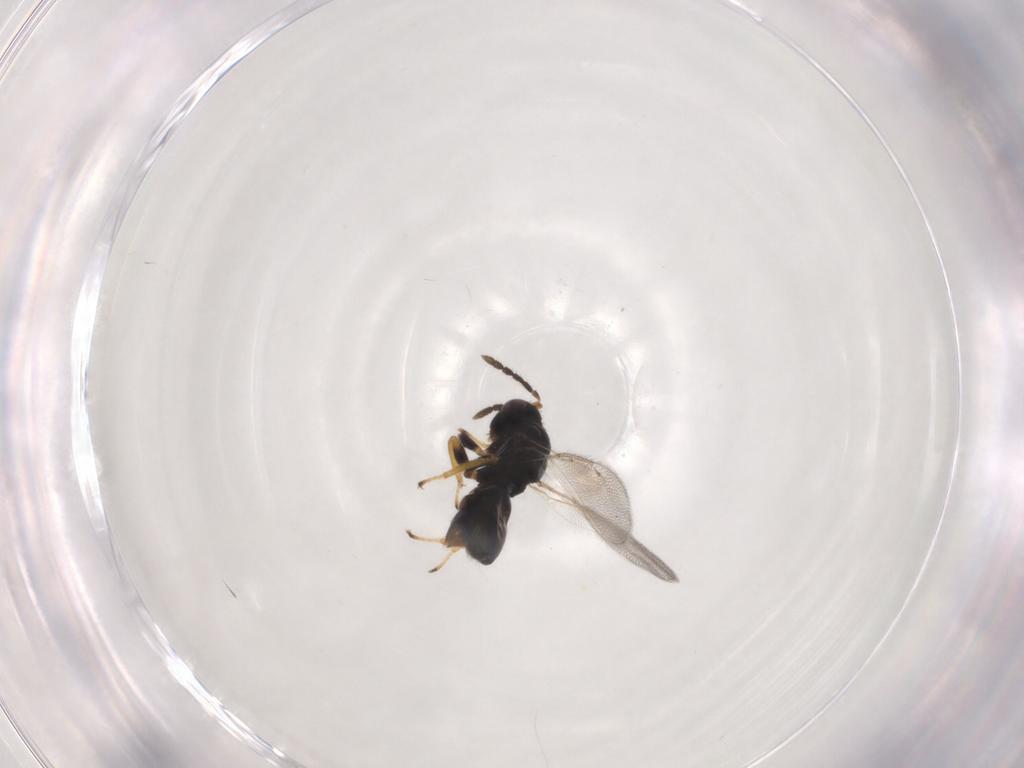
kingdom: Animalia
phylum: Arthropoda
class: Insecta
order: Hymenoptera
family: Eulophidae
